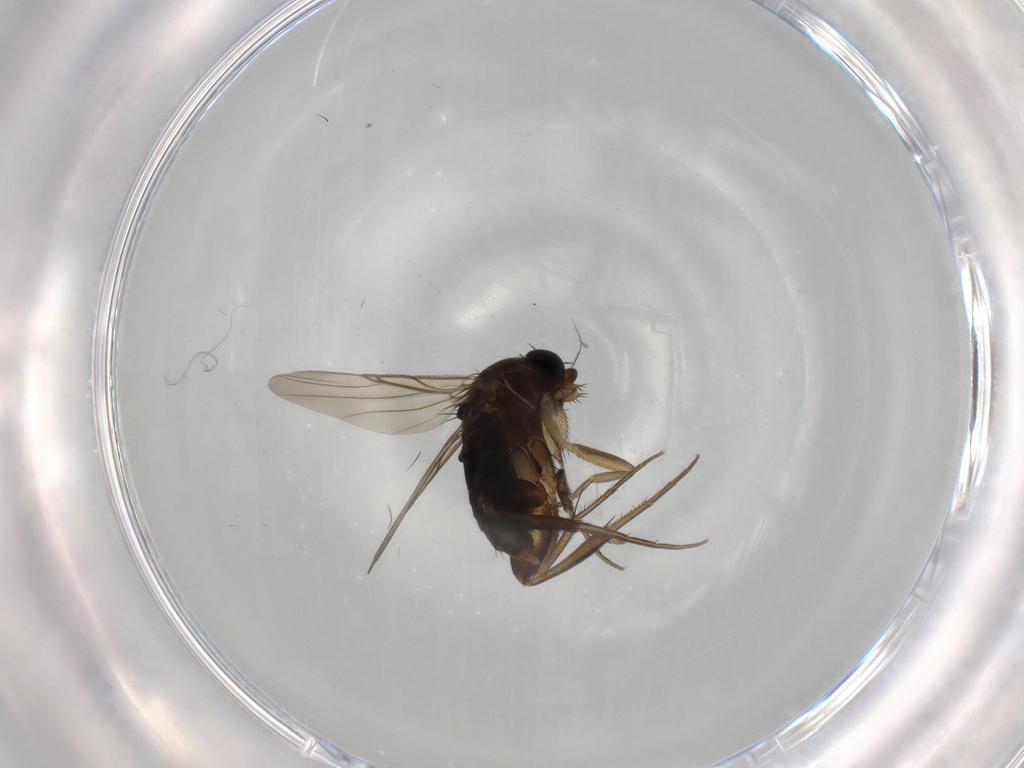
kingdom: Animalia
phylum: Arthropoda
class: Insecta
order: Diptera
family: Phoridae
